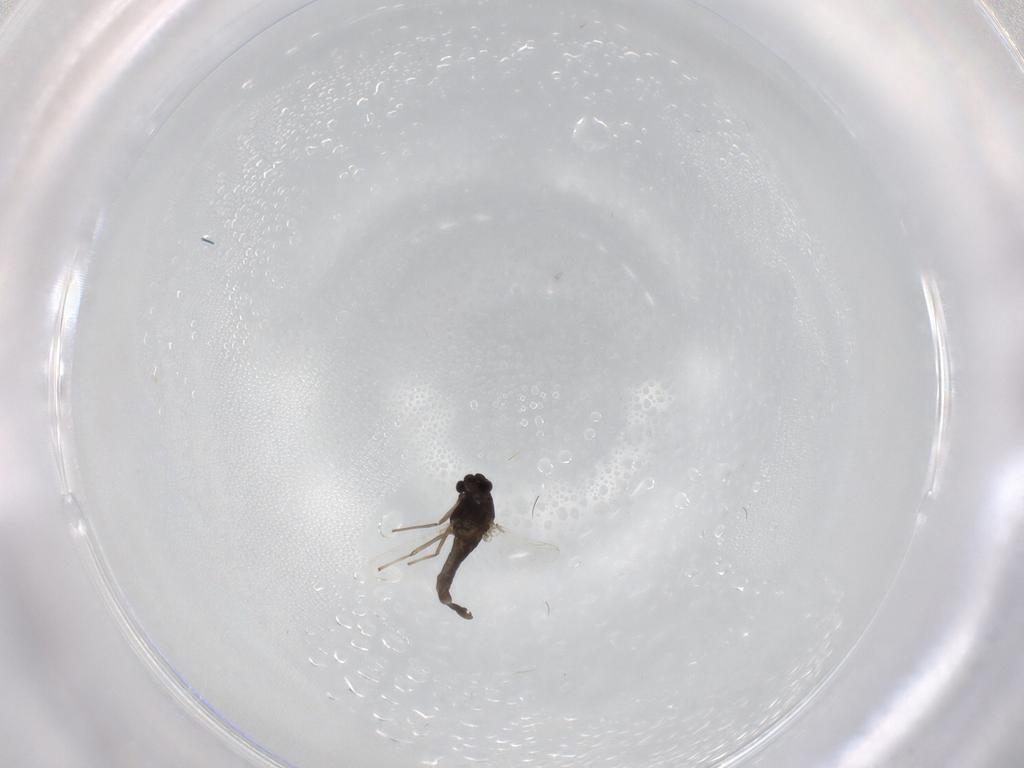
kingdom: Animalia
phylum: Arthropoda
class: Insecta
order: Diptera
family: Chironomidae
